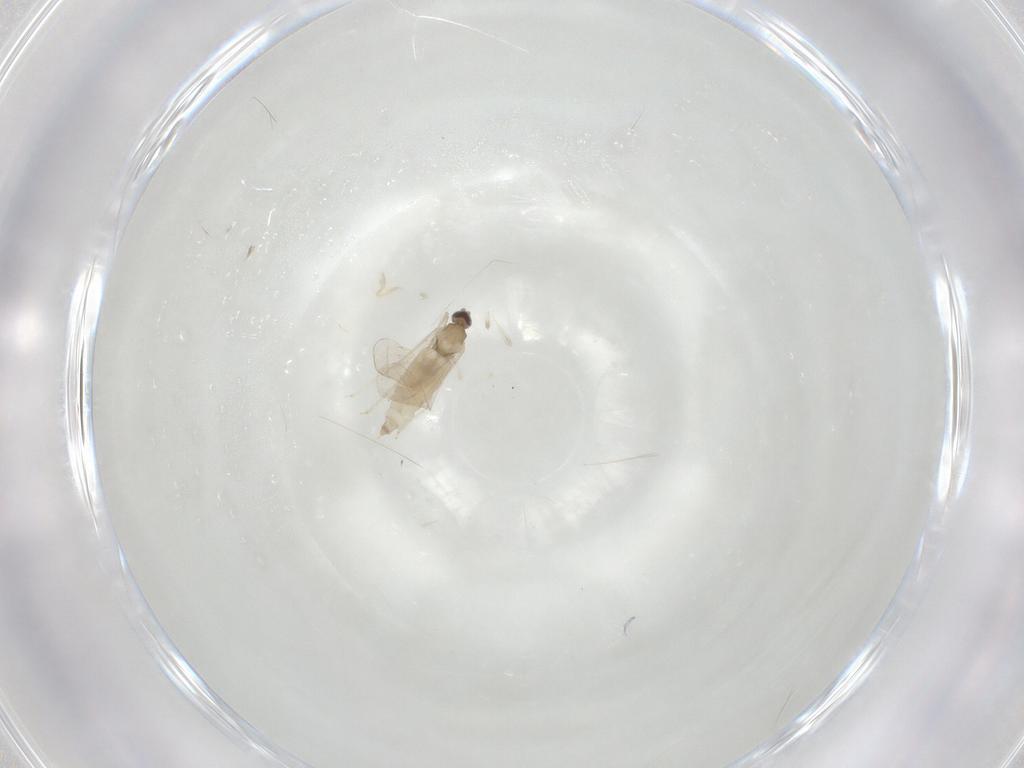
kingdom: Animalia
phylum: Arthropoda
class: Insecta
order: Diptera
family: Cecidomyiidae
